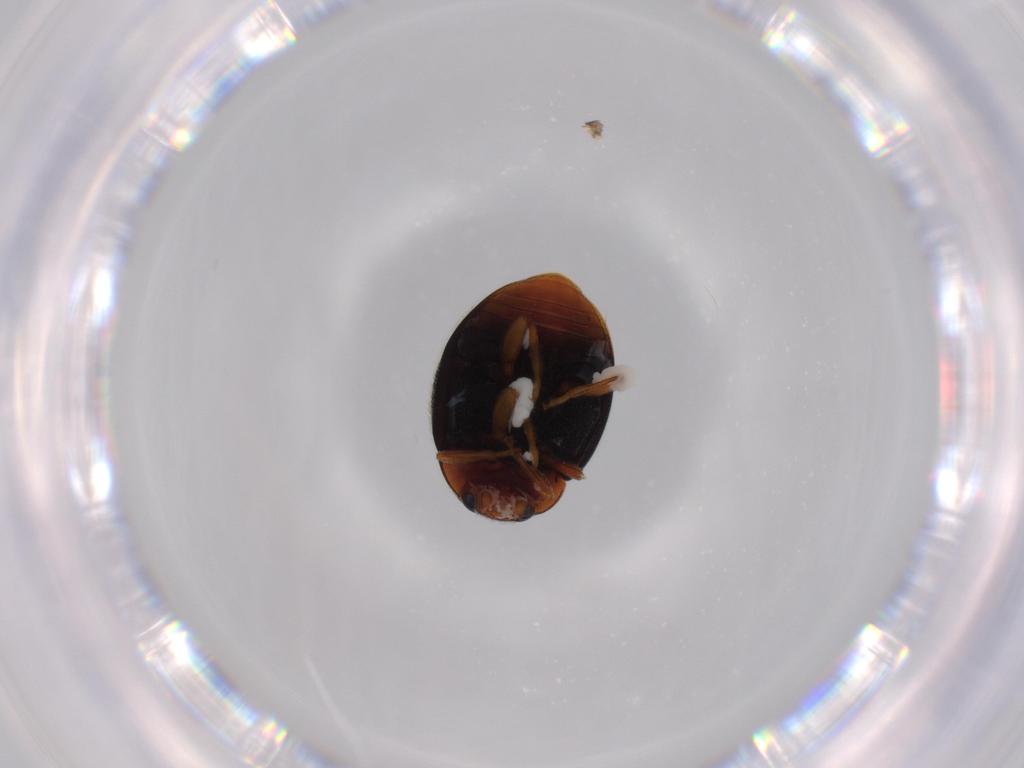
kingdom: Animalia
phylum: Arthropoda
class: Insecta
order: Coleoptera
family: Coccinellidae
